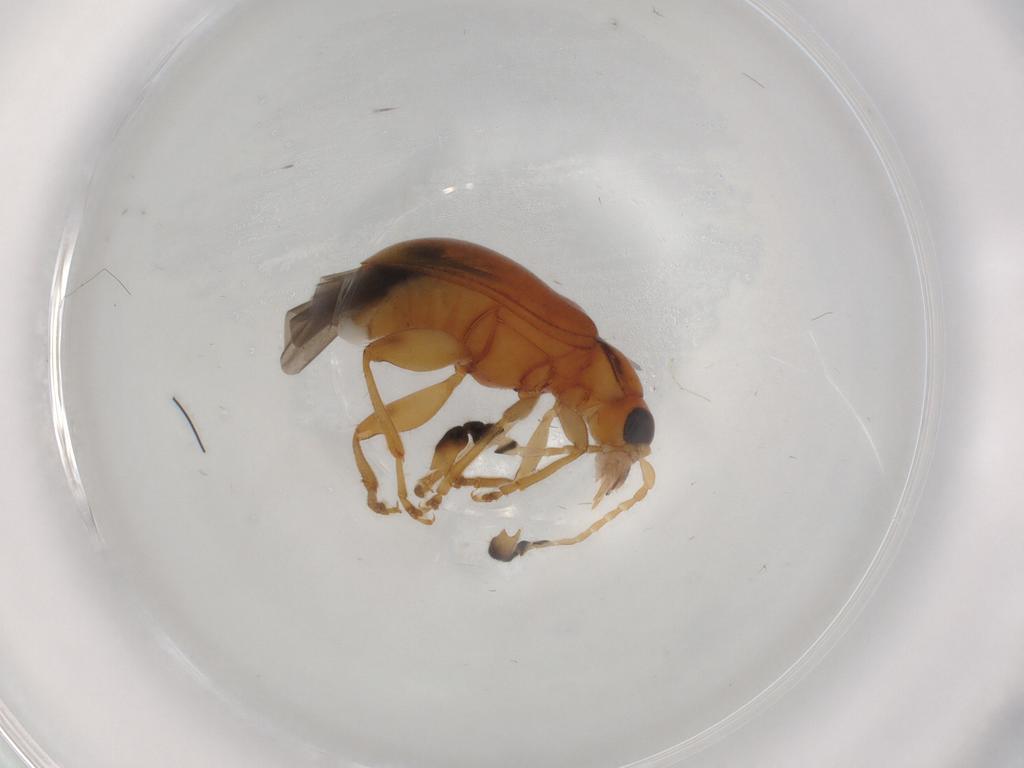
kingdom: Animalia
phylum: Arthropoda
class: Insecta
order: Coleoptera
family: Chrysomelidae
